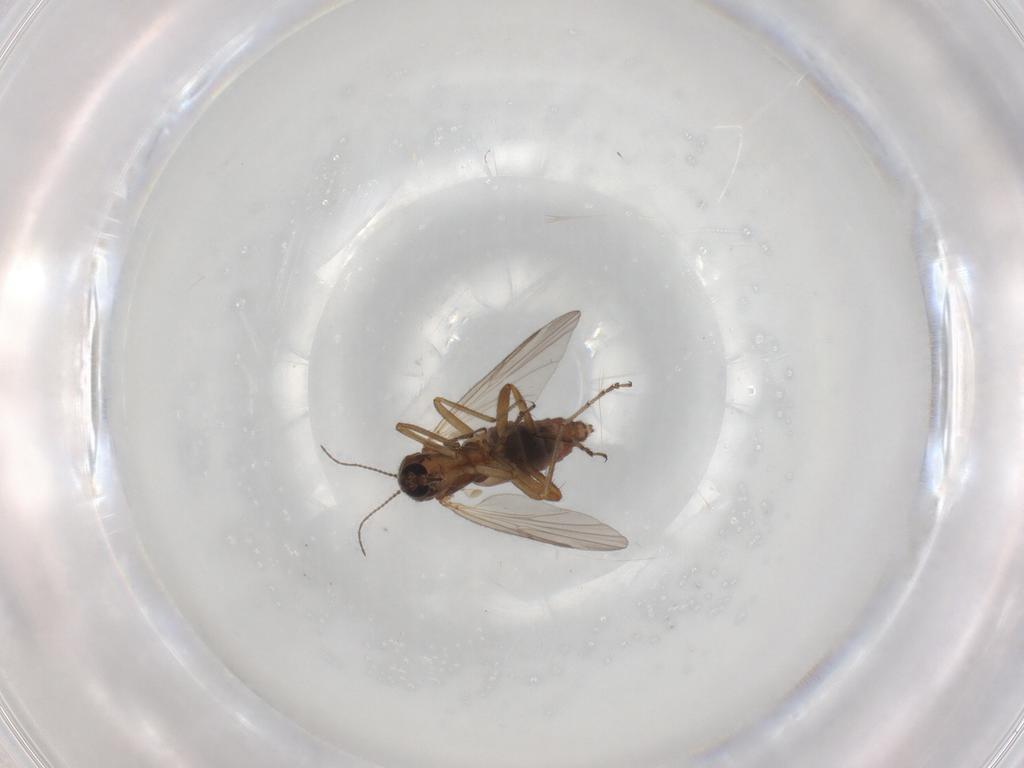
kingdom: Animalia
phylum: Arthropoda
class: Insecta
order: Diptera
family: Chironomidae
